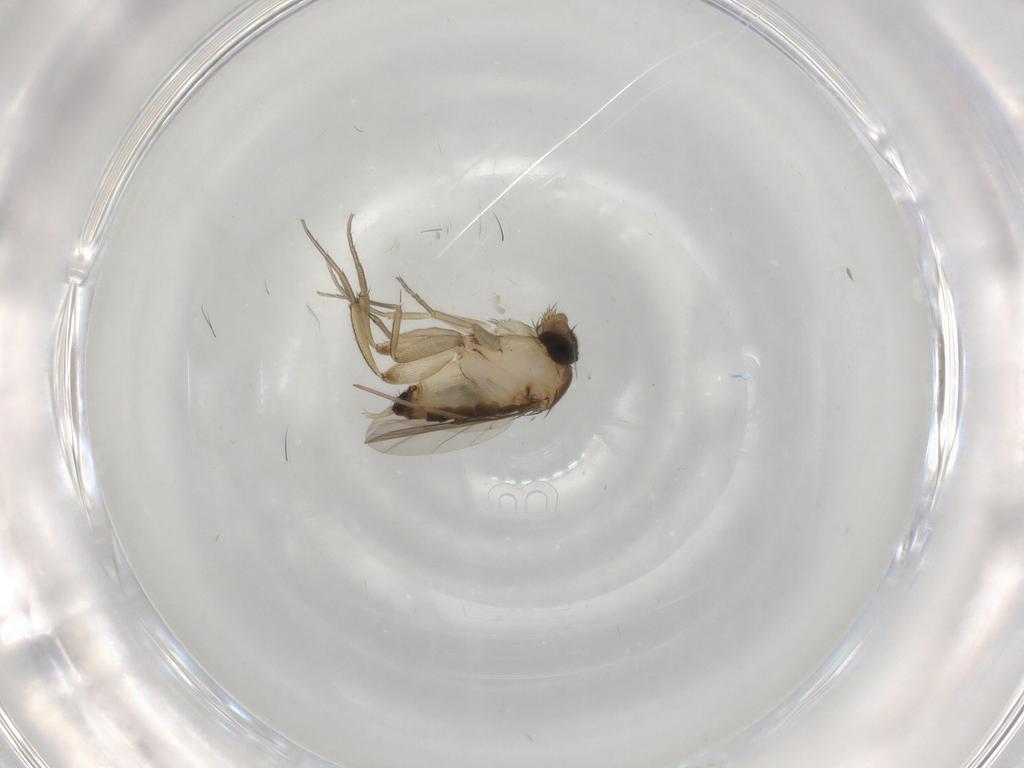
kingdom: Animalia
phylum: Arthropoda
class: Insecta
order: Diptera
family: Phoridae
